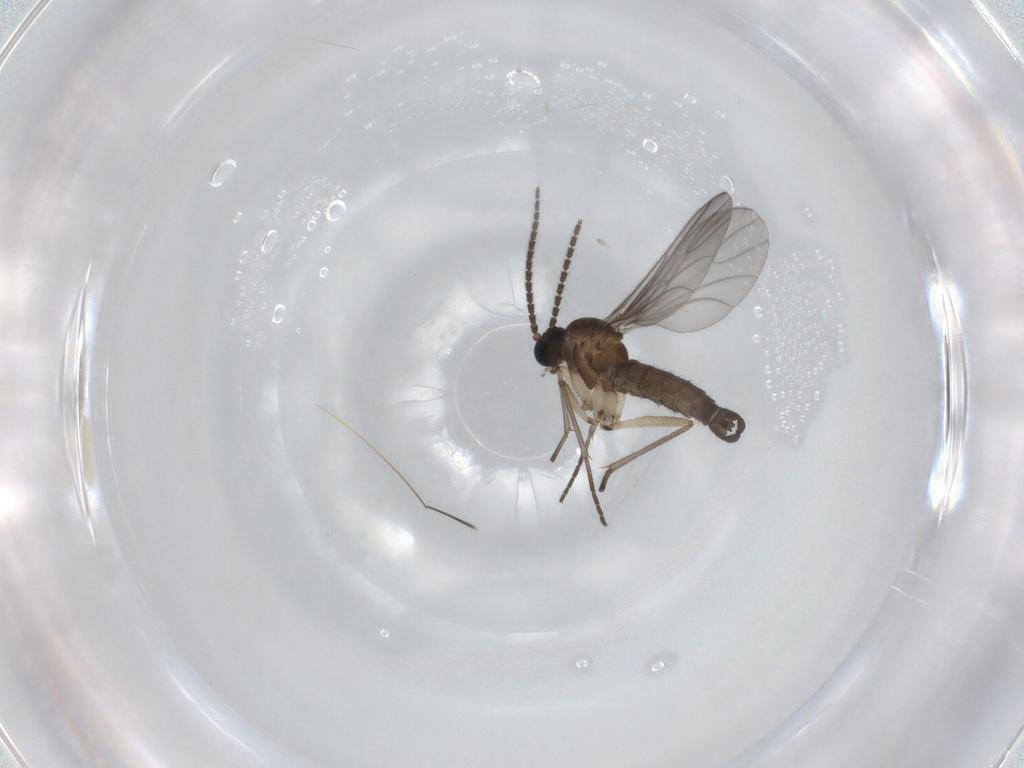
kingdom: Animalia
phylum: Arthropoda
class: Insecta
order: Diptera
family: Sciaridae
